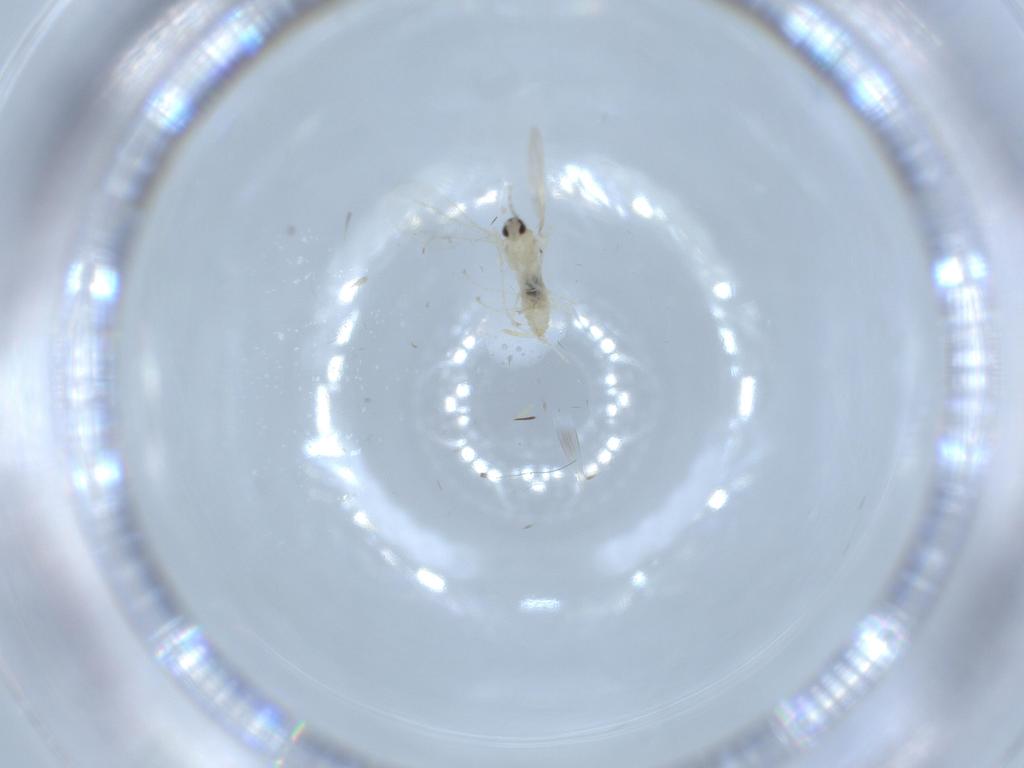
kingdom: Animalia
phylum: Arthropoda
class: Insecta
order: Diptera
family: Cecidomyiidae
